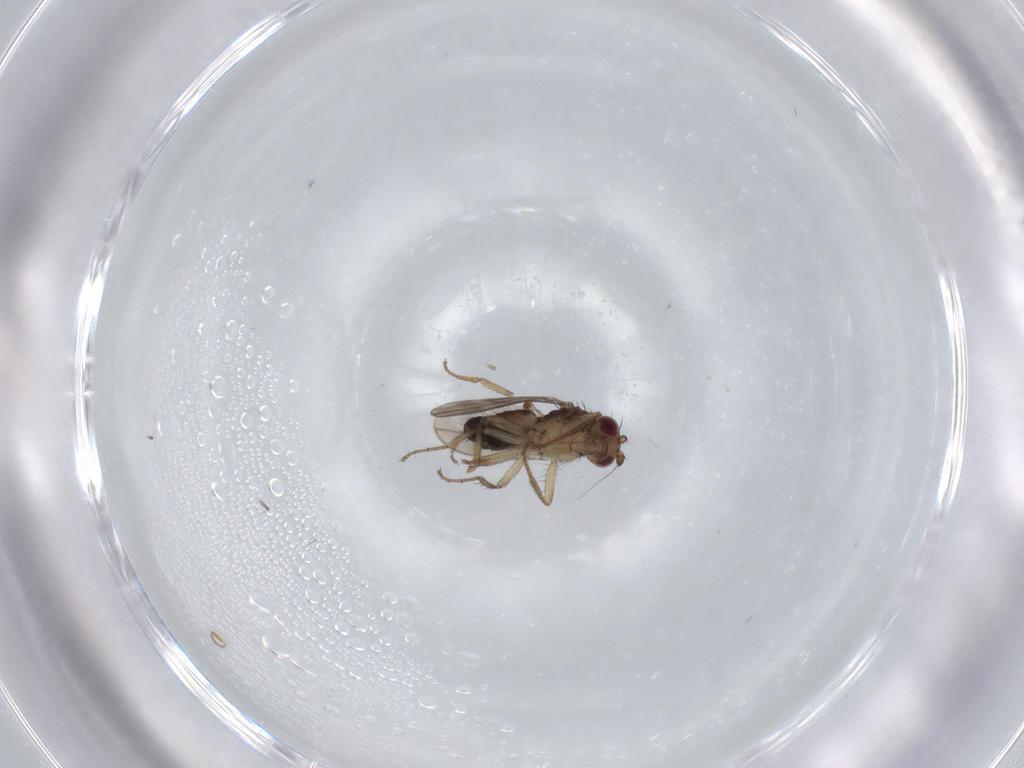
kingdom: Animalia
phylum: Arthropoda
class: Insecta
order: Diptera
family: Sphaeroceridae
